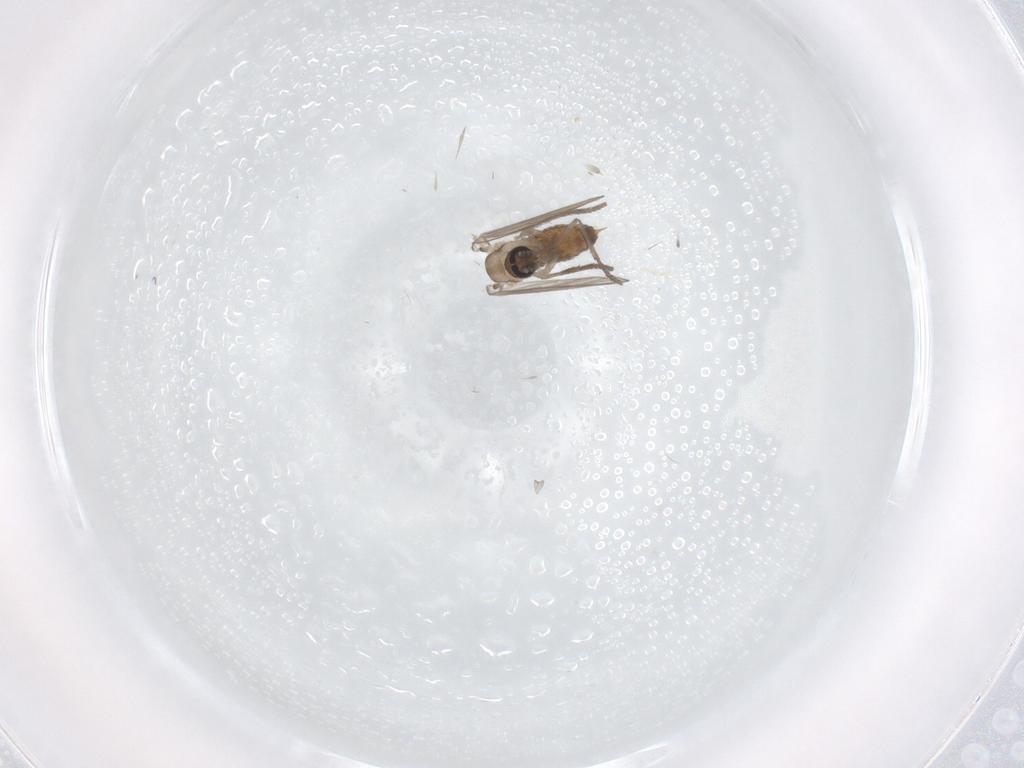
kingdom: Animalia
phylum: Arthropoda
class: Insecta
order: Diptera
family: Psychodidae
